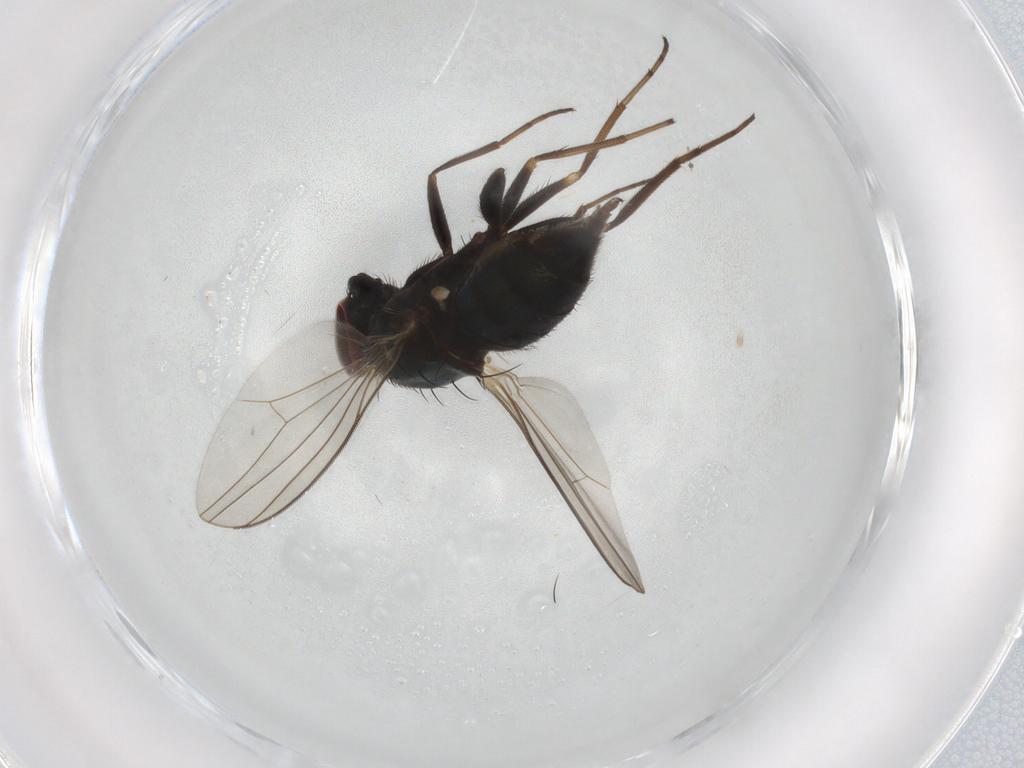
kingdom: Animalia
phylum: Arthropoda
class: Insecta
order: Diptera
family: Dolichopodidae
